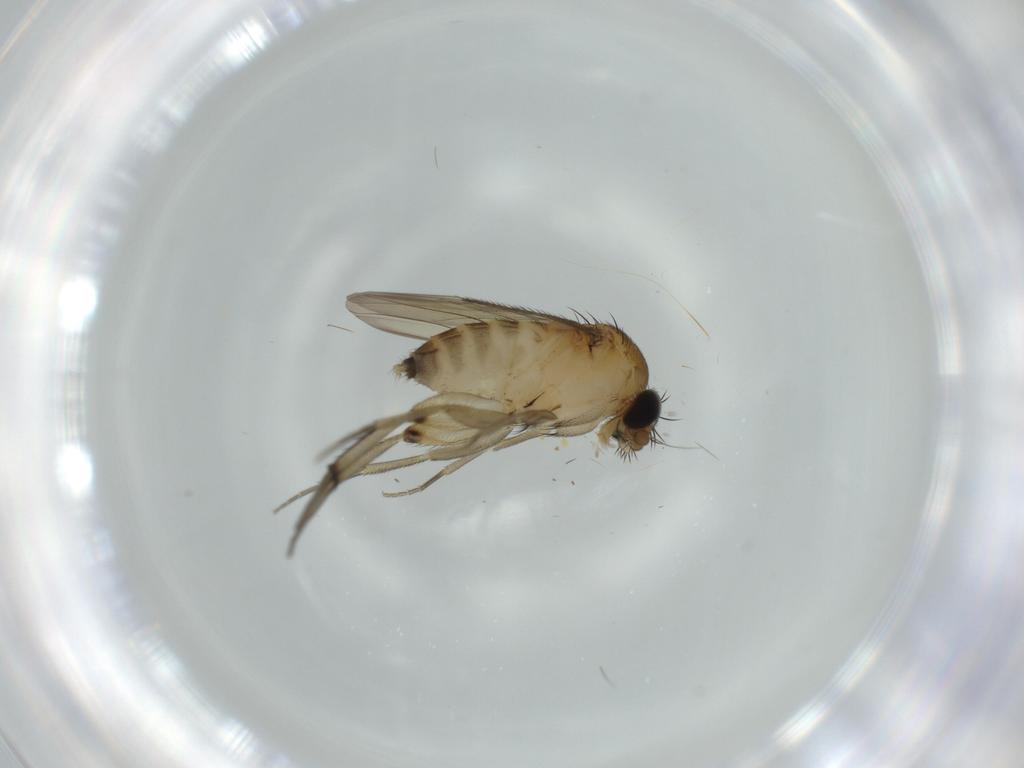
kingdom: Animalia
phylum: Arthropoda
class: Insecta
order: Diptera
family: Phoridae
